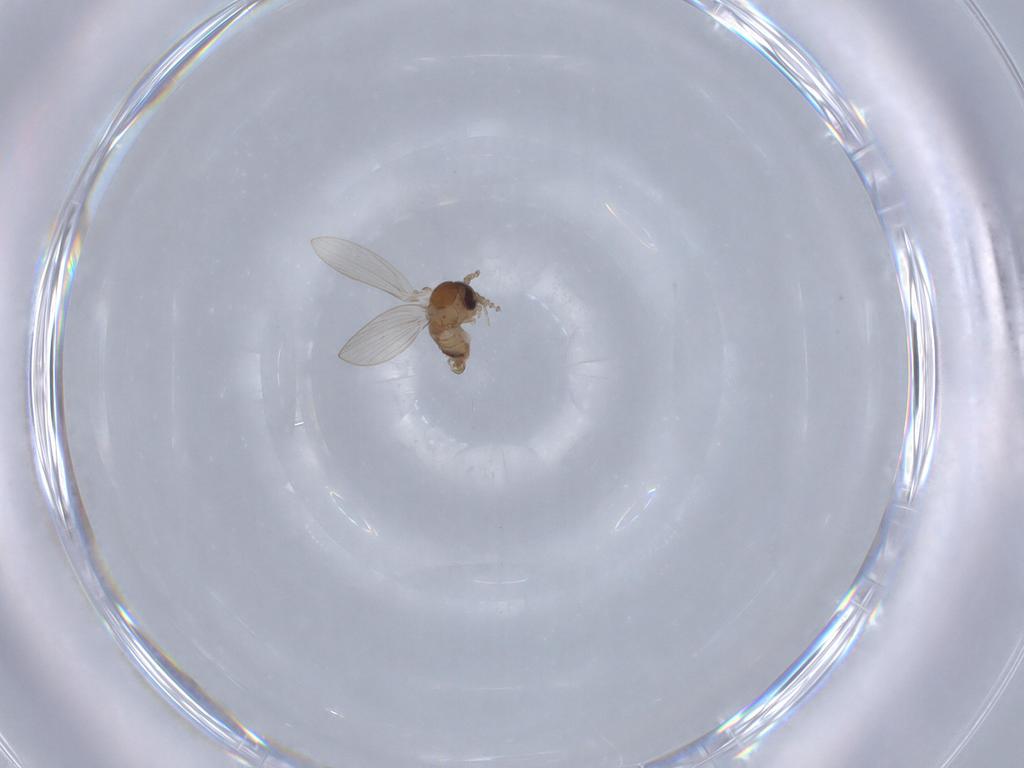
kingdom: Animalia
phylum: Arthropoda
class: Insecta
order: Diptera
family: Psychodidae
